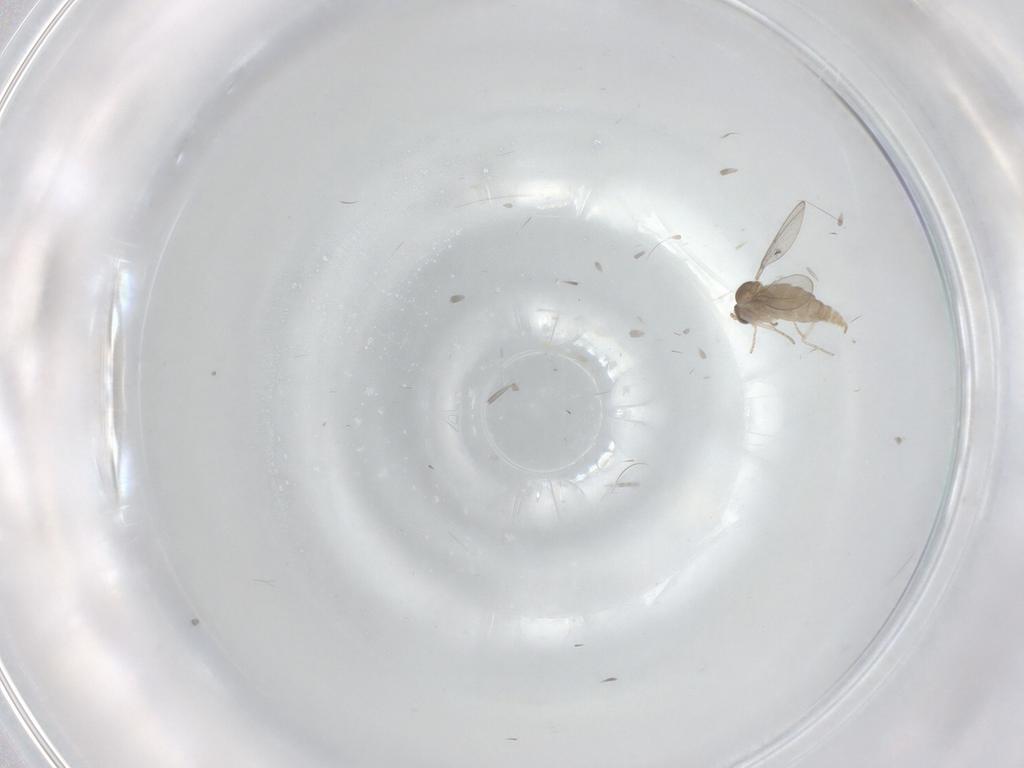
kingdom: Animalia
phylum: Arthropoda
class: Insecta
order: Diptera
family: Cecidomyiidae
